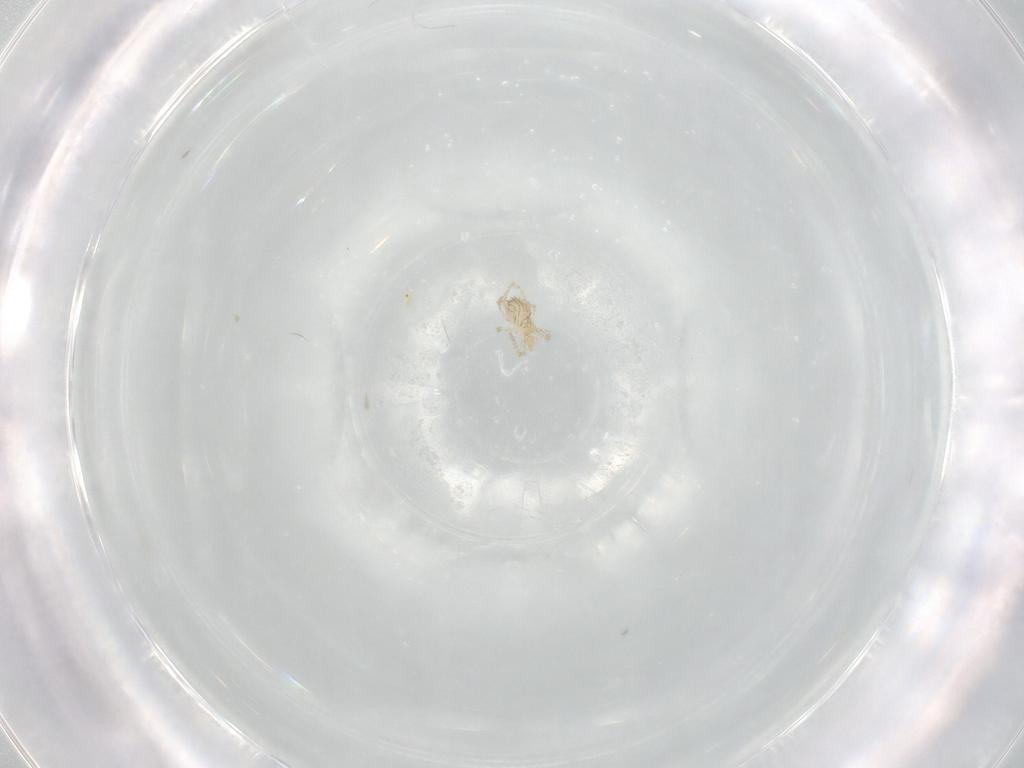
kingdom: Animalia
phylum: Arthropoda
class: Arachnida
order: Trombidiformes
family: Erythraeidae
